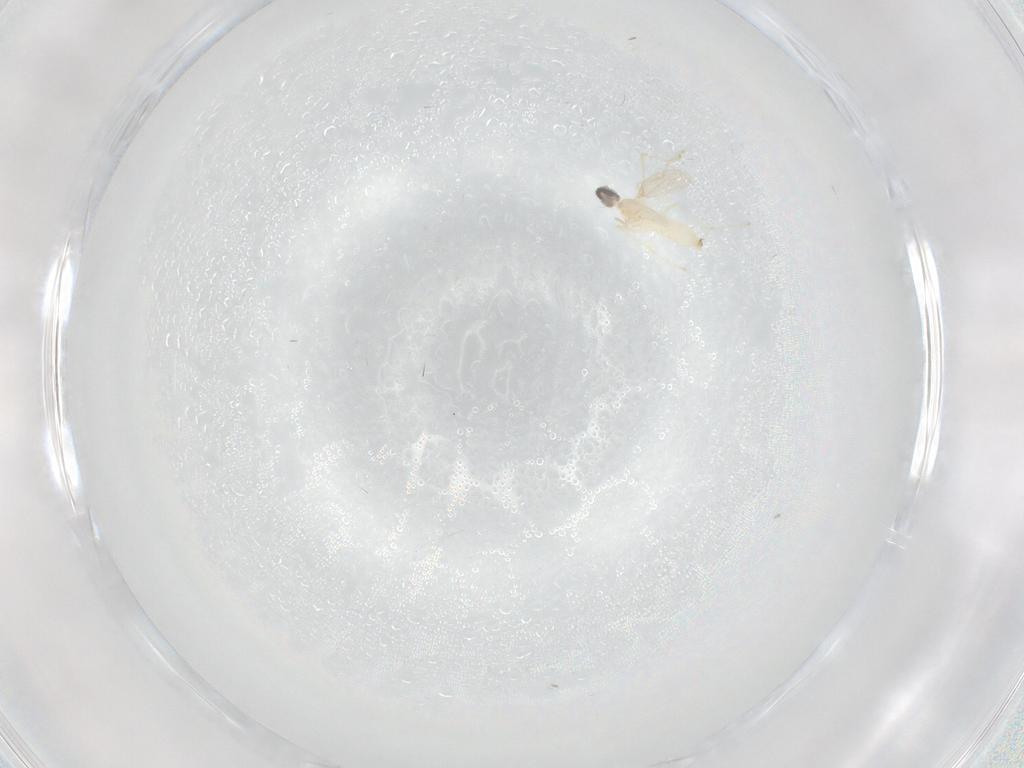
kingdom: Animalia
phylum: Arthropoda
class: Insecta
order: Diptera
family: Cecidomyiidae
